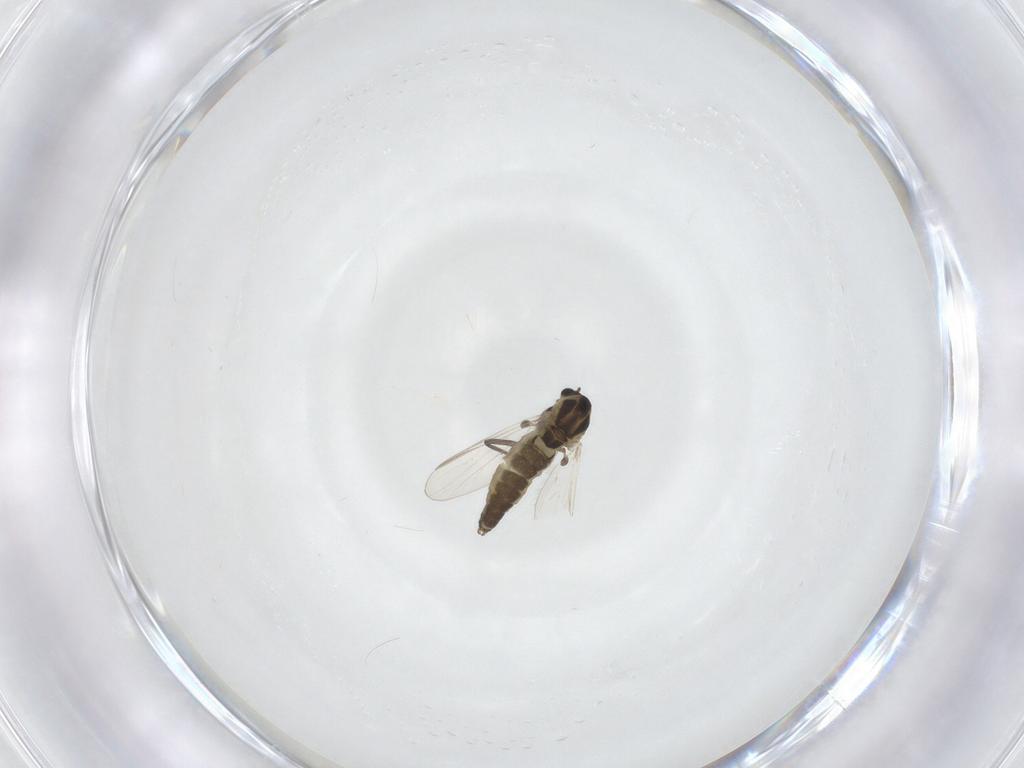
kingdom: Animalia
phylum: Arthropoda
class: Insecta
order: Diptera
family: Chironomidae
